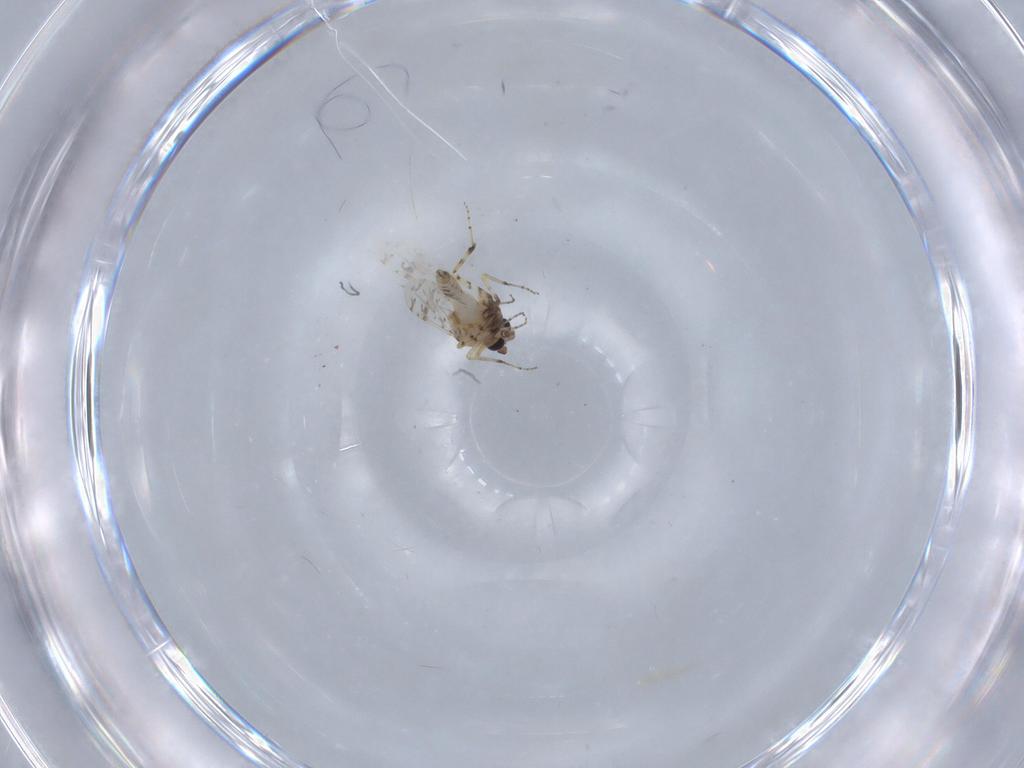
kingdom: Animalia
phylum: Arthropoda
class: Insecta
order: Diptera
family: Ceratopogonidae
